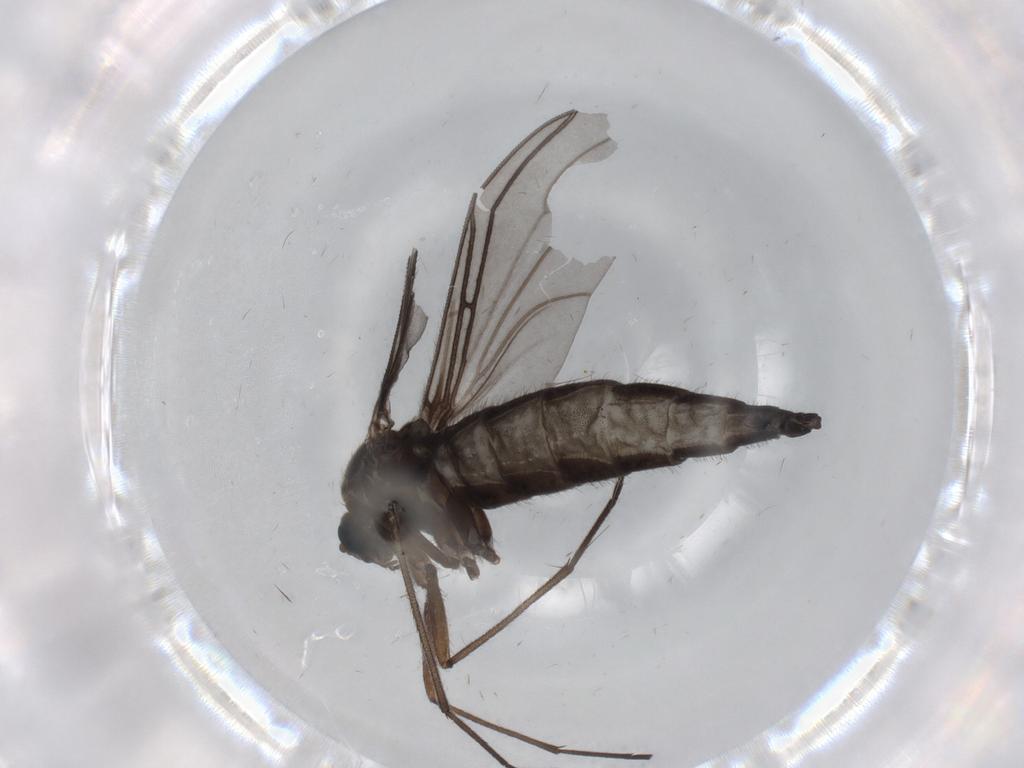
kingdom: Animalia
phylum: Arthropoda
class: Insecta
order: Diptera
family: Sciaridae
